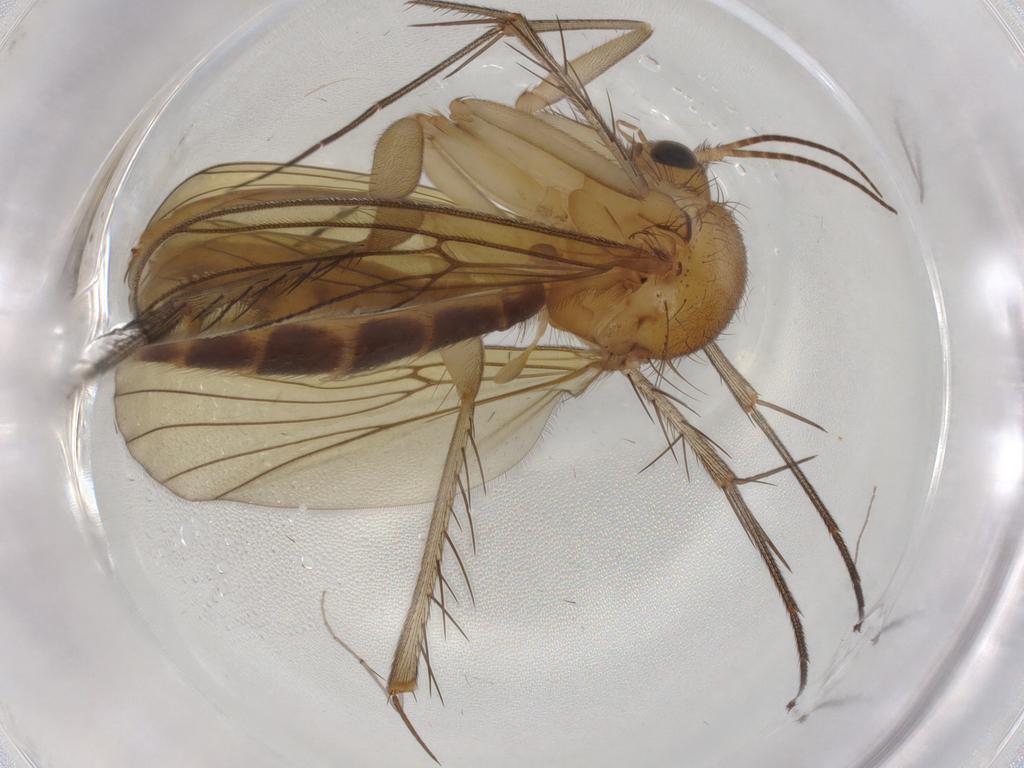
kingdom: Animalia
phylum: Arthropoda
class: Insecta
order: Diptera
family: Mycetophilidae
